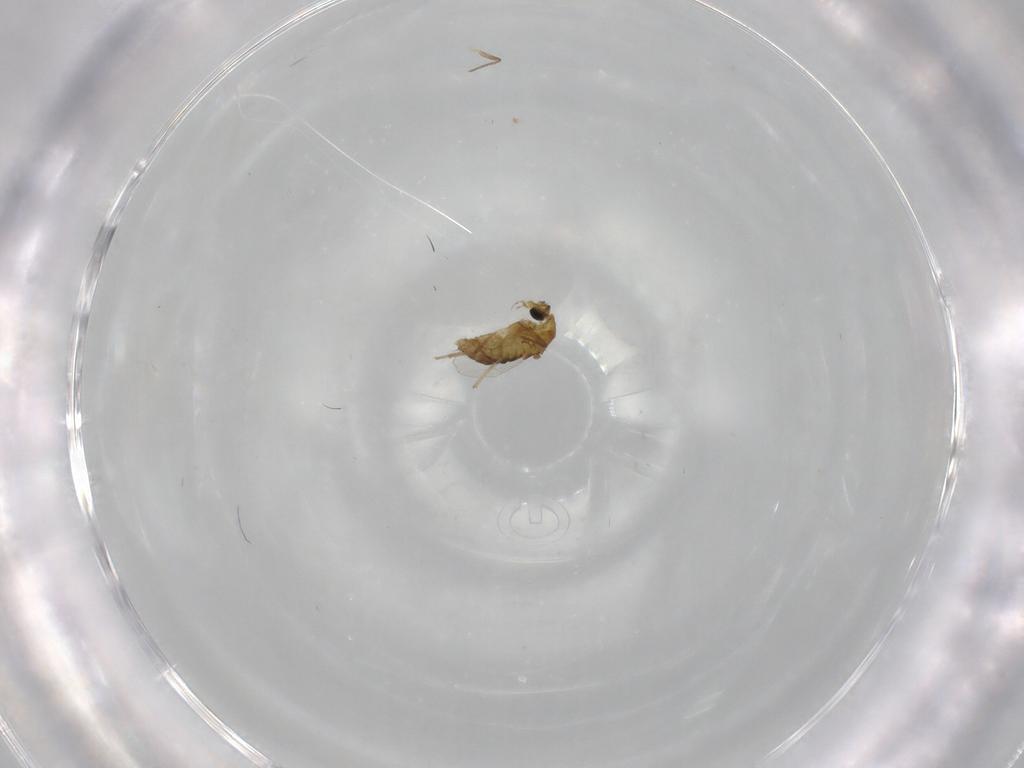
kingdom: Animalia
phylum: Arthropoda
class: Insecta
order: Diptera
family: Chironomidae
